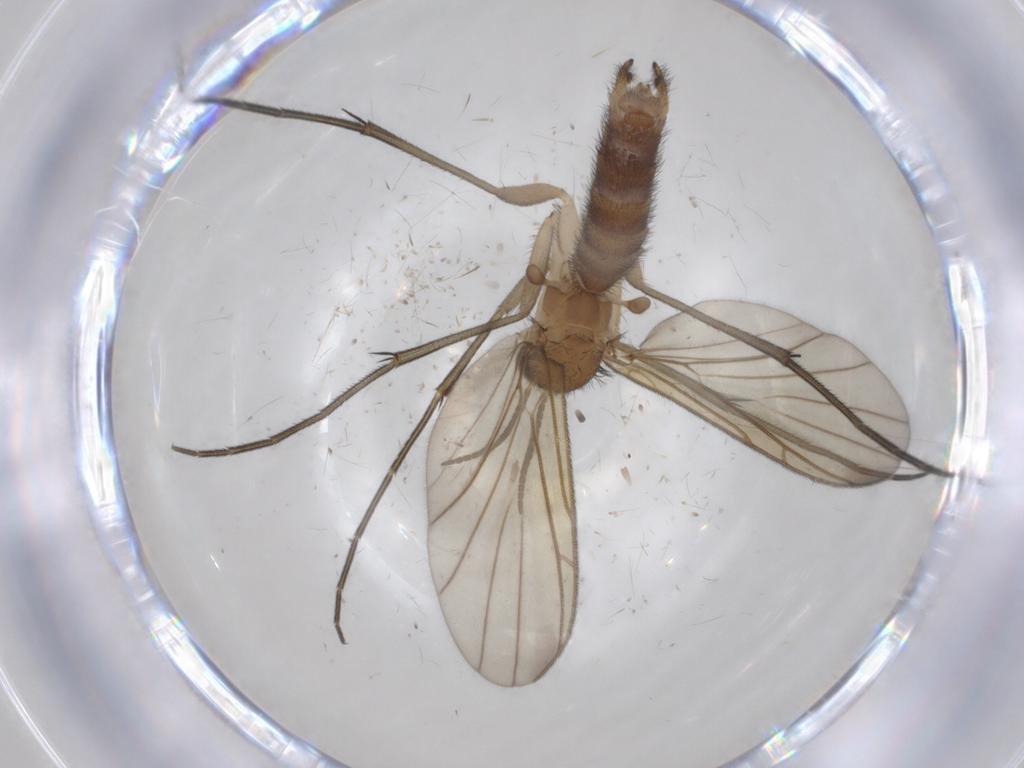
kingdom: Animalia
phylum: Arthropoda
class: Insecta
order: Diptera
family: Keroplatidae
